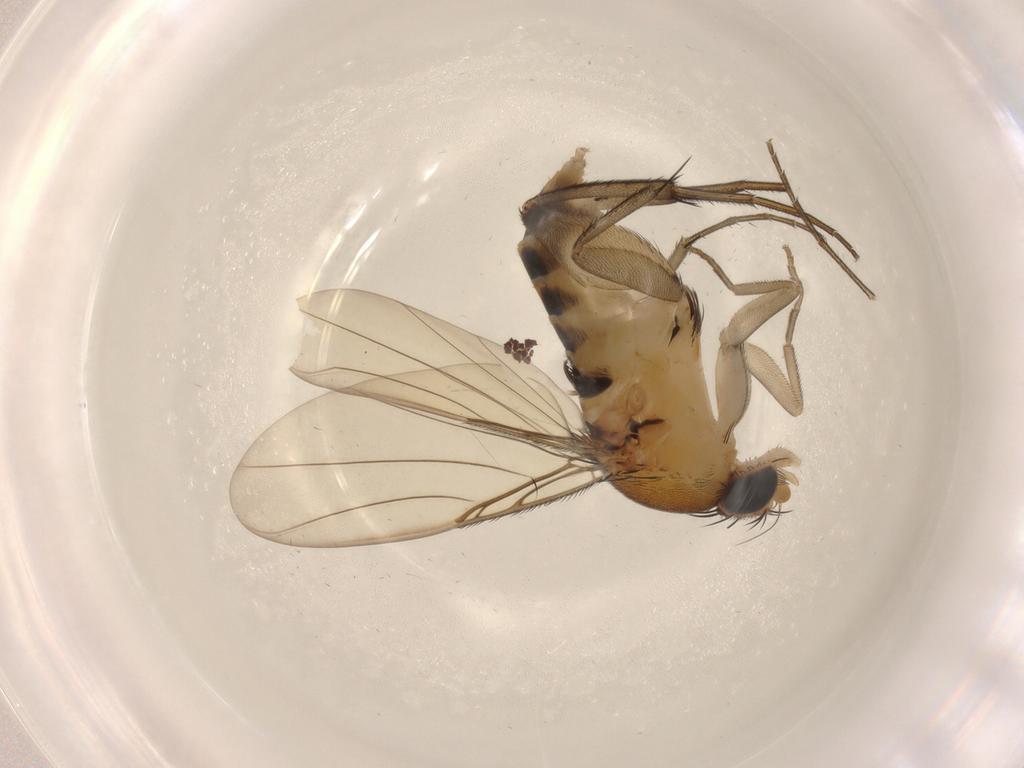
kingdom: Animalia
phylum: Arthropoda
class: Insecta
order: Diptera
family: Phoridae
